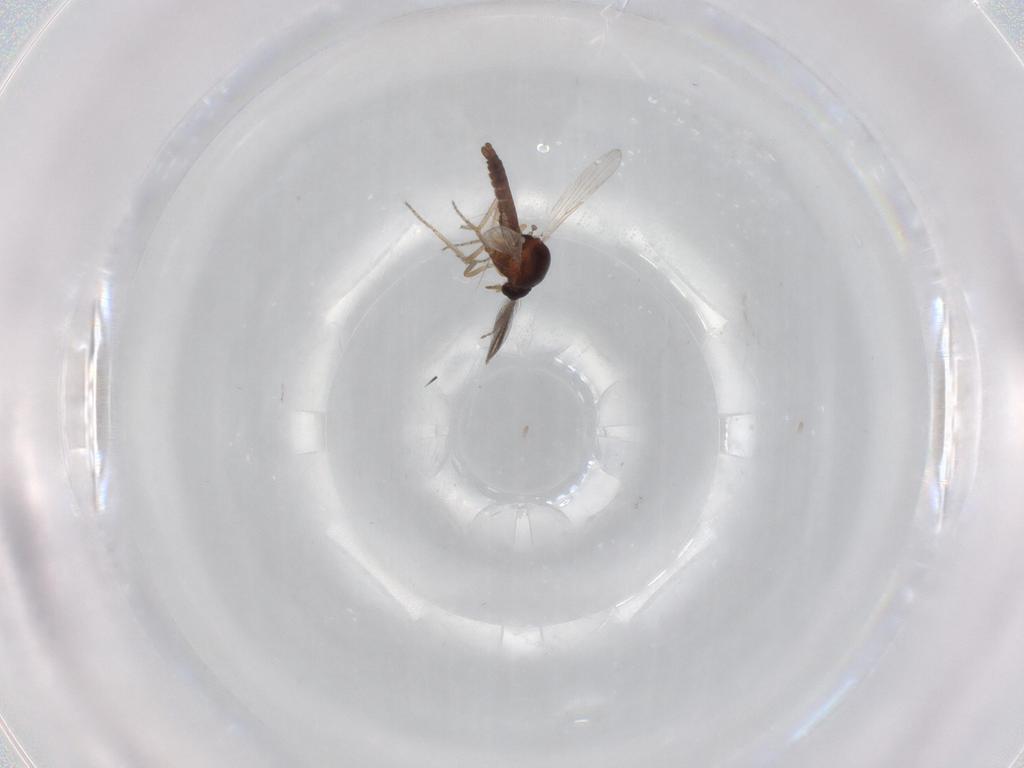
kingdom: Animalia
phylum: Arthropoda
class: Insecta
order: Diptera
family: Ceratopogonidae
